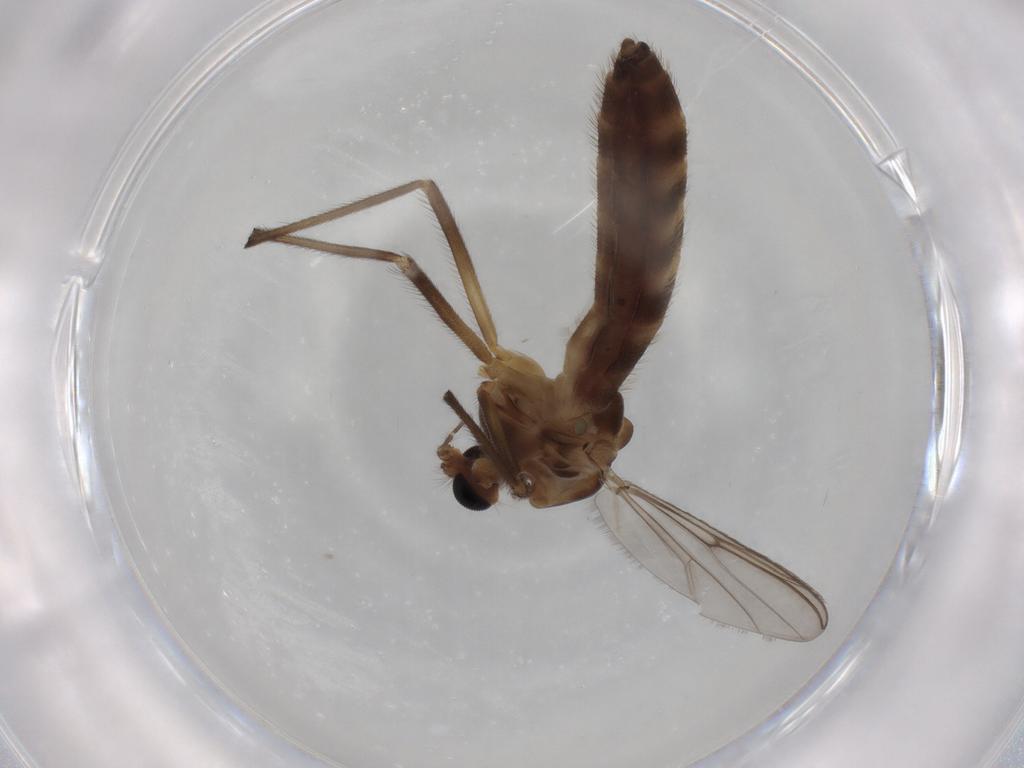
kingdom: Animalia
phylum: Arthropoda
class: Insecta
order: Diptera
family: Chironomidae
